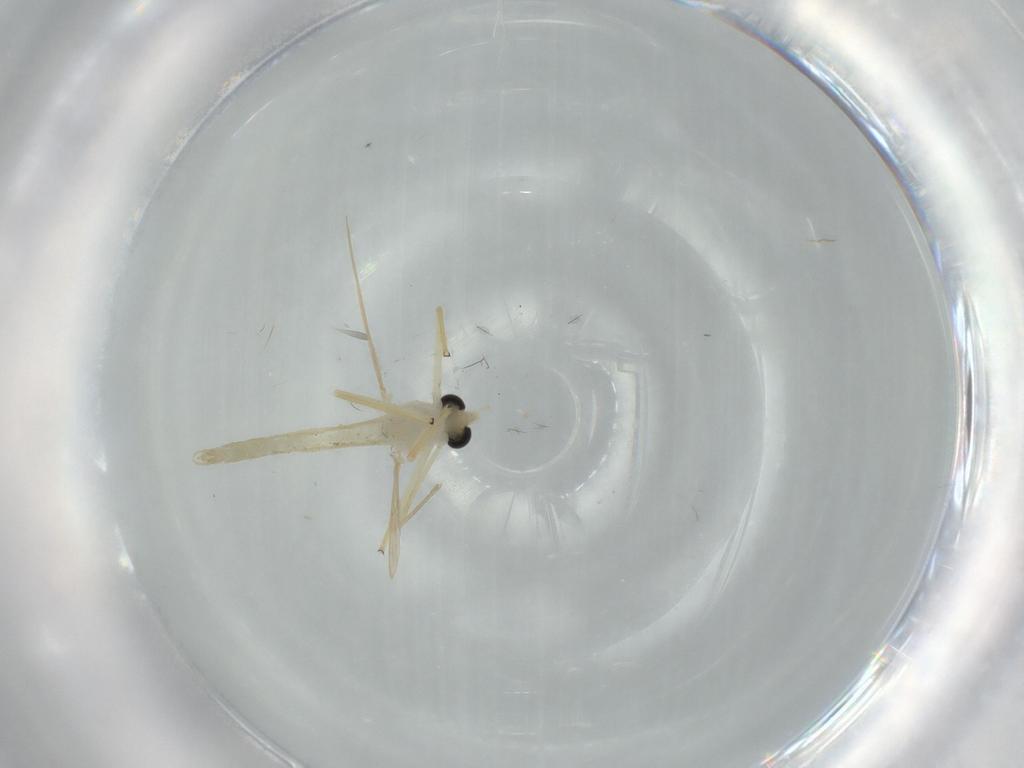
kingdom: Animalia
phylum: Arthropoda
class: Insecta
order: Diptera
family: Chironomidae
